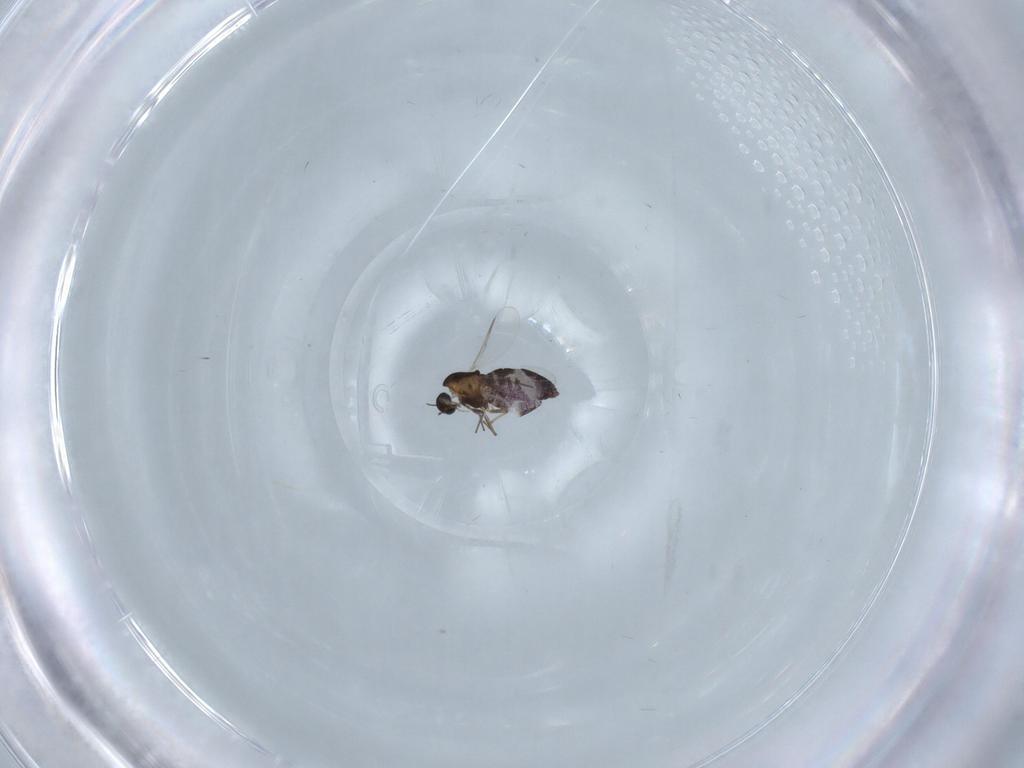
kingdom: Animalia
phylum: Arthropoda
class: Insecta
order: Diptera
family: Chironomidae
